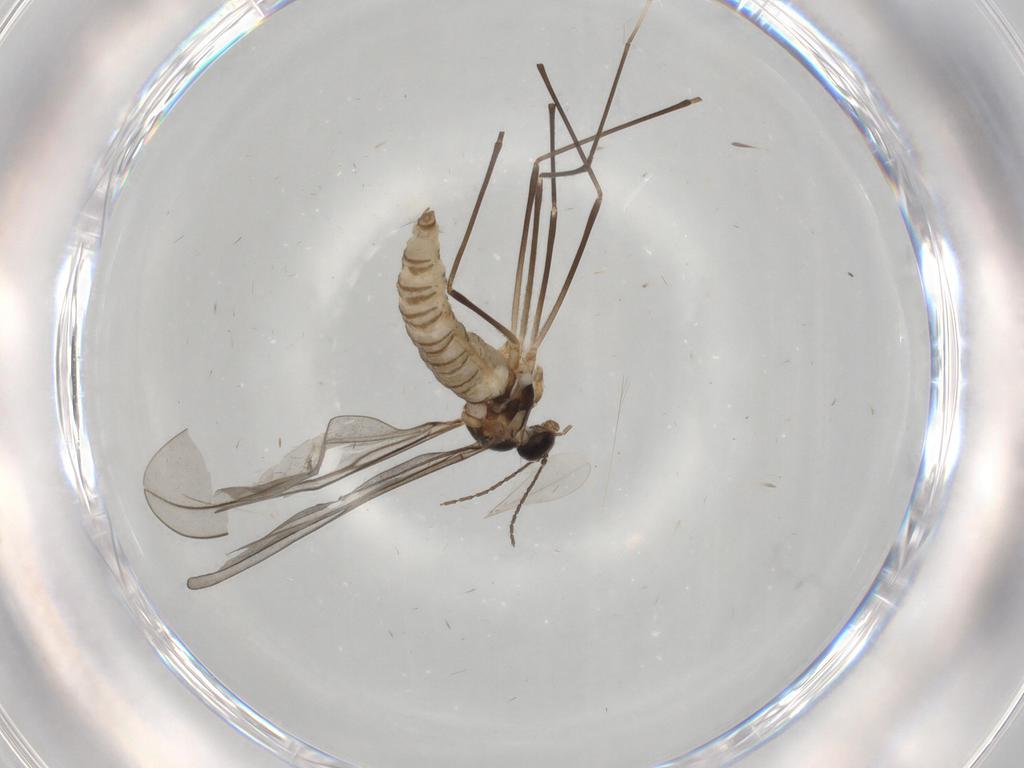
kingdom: Animalia
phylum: Arthropoda
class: Insecta
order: Diptera
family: Cecidomyiidae
